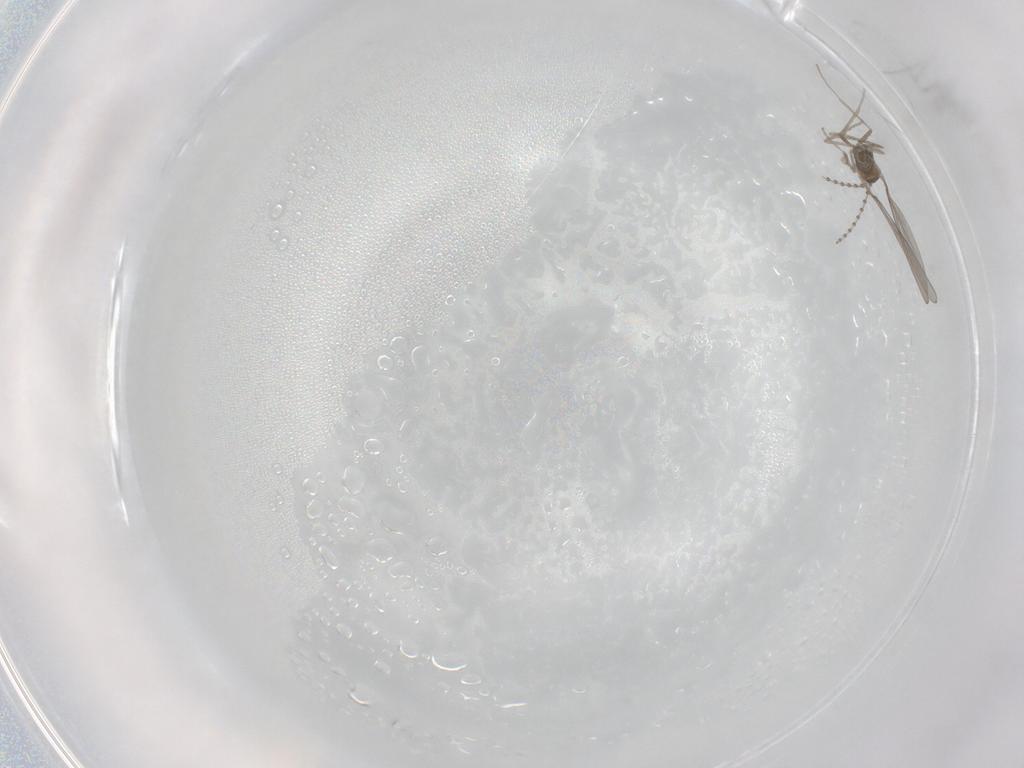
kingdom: Animalia
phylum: Arthropoda
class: Insecta
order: Diptera
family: Cecidomyiidae
